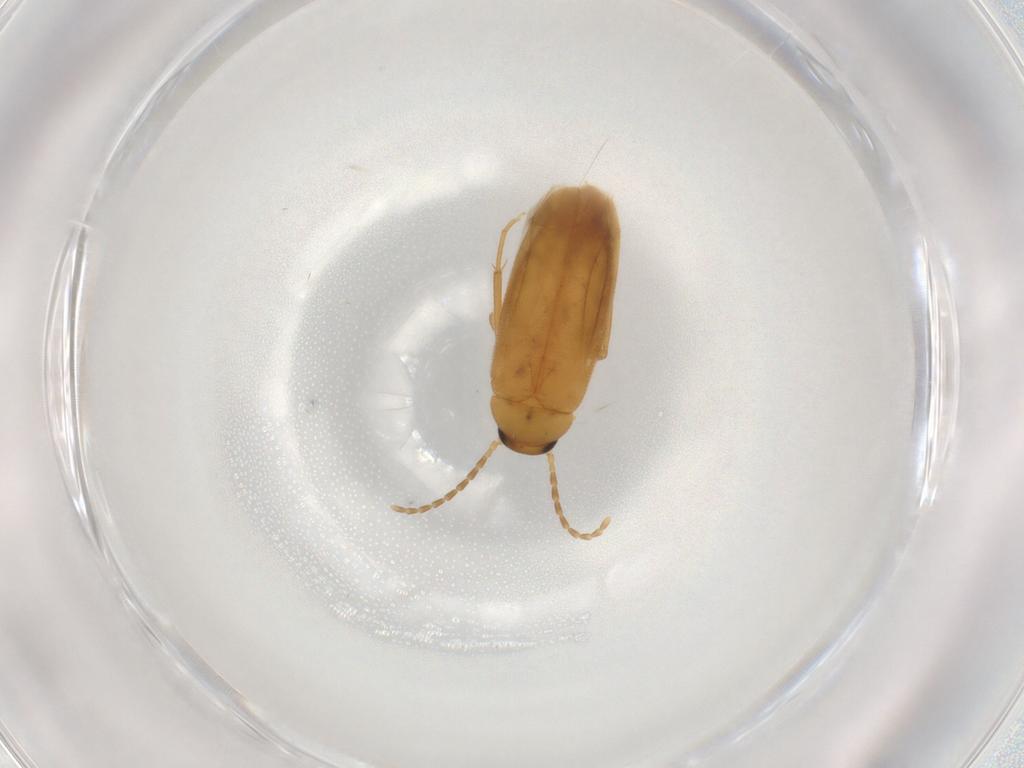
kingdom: Animalia
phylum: Arthropoda
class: Insecta
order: Coleoptera
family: Scraptiidae
